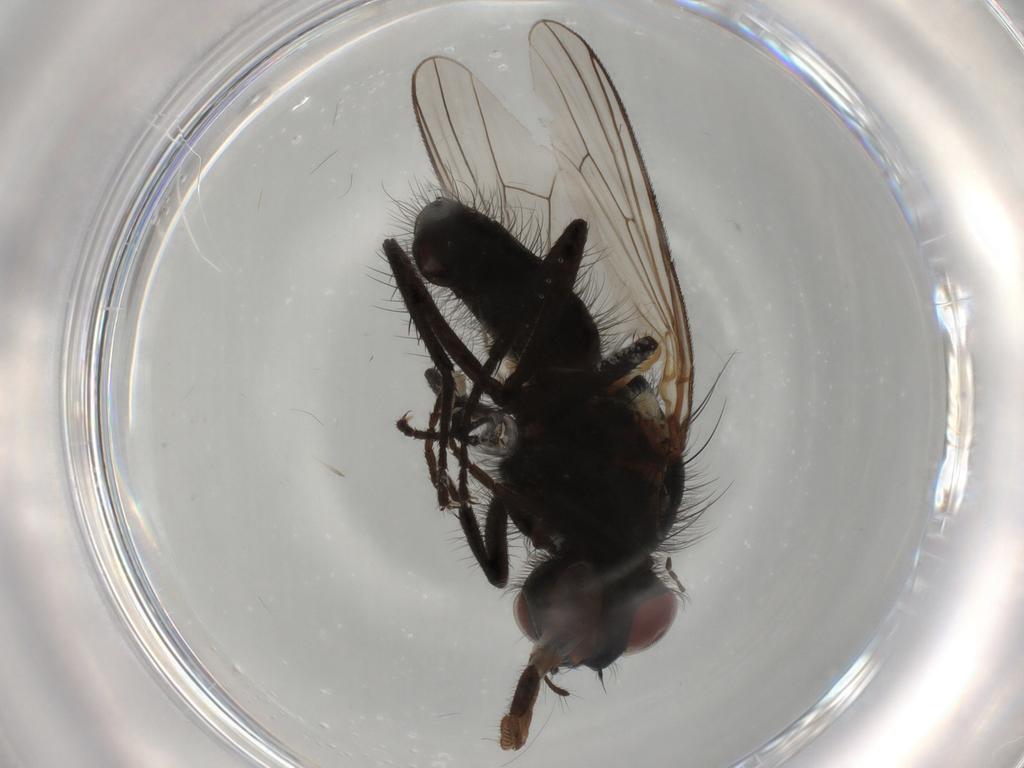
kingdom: Animalia
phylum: Arthropoda
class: Insecta
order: Diptera
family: Anthomyiidae
